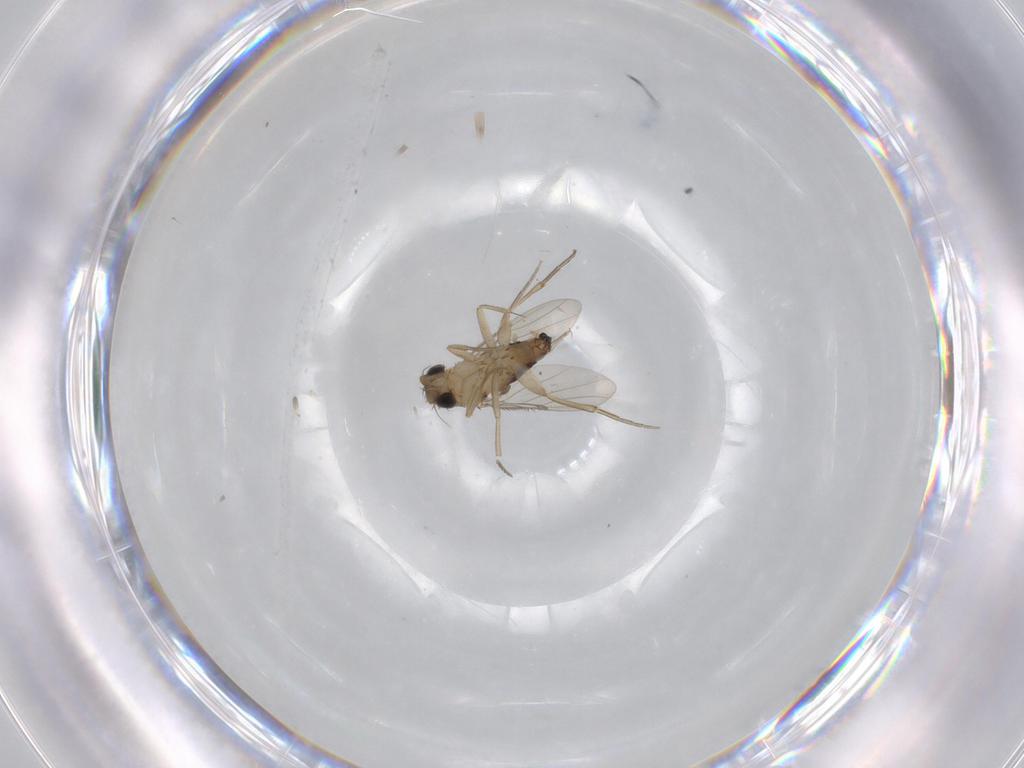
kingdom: Animalia
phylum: Arthropoda
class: Insecta
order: Diptera
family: Phoridae
